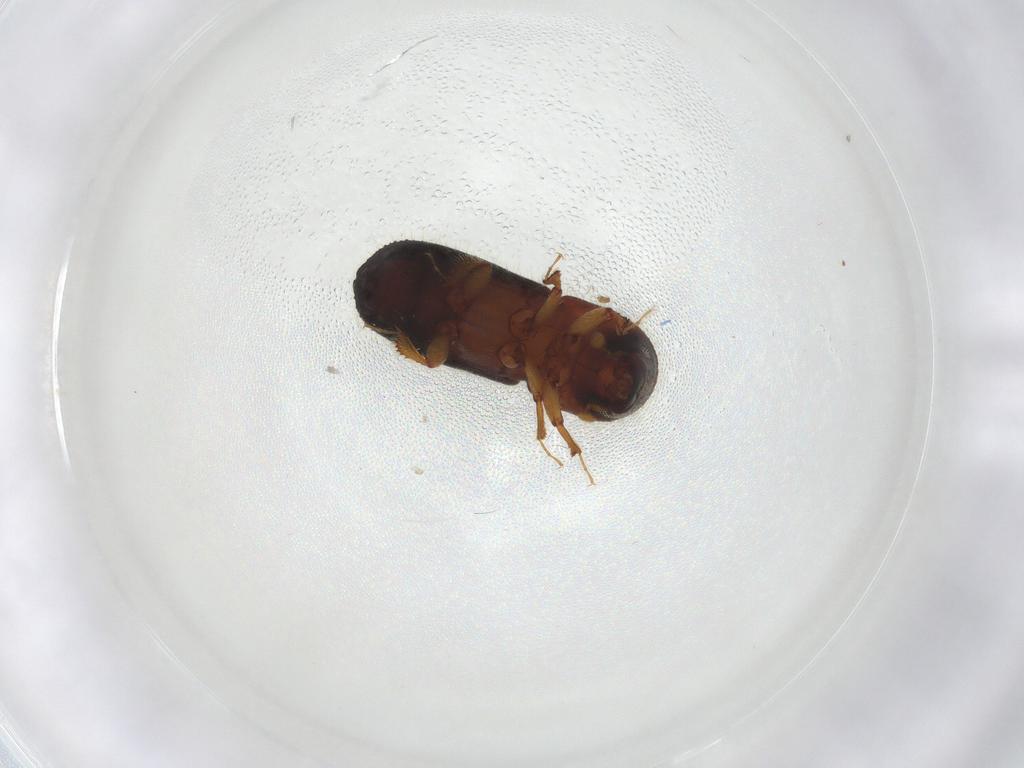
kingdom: Animalia
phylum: Arthropoda
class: Insecta
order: Coleoptera
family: Curculionidae
